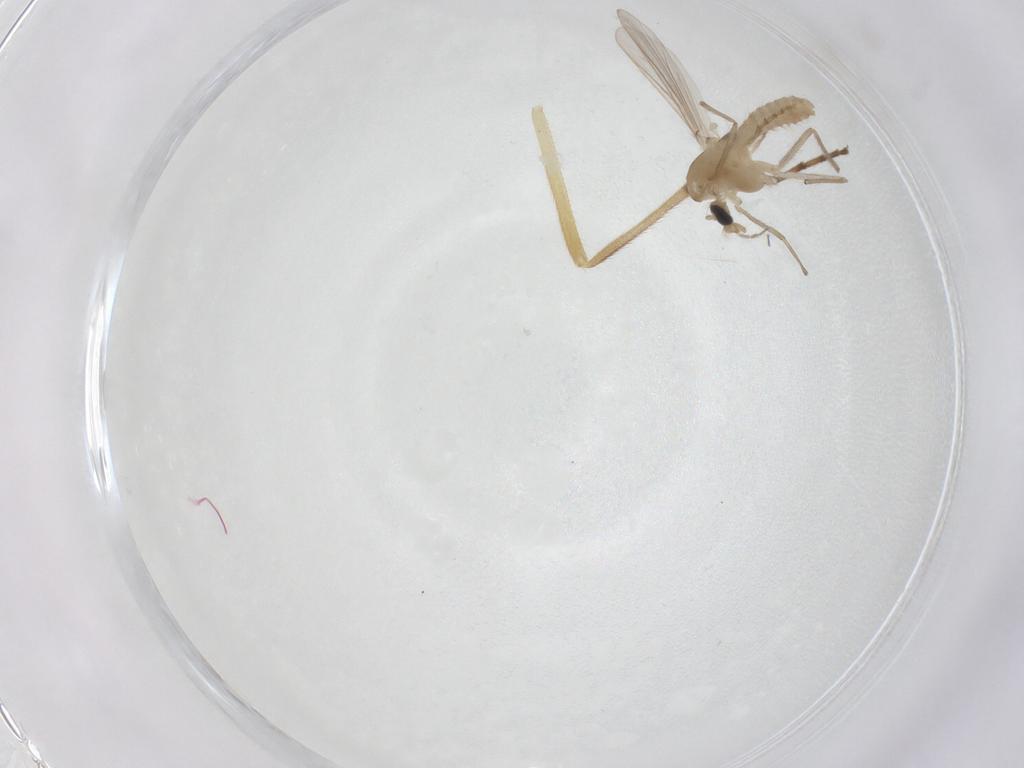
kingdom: Animalia
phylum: Arthropoda
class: Insecta
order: Diptera
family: Chironomidae
